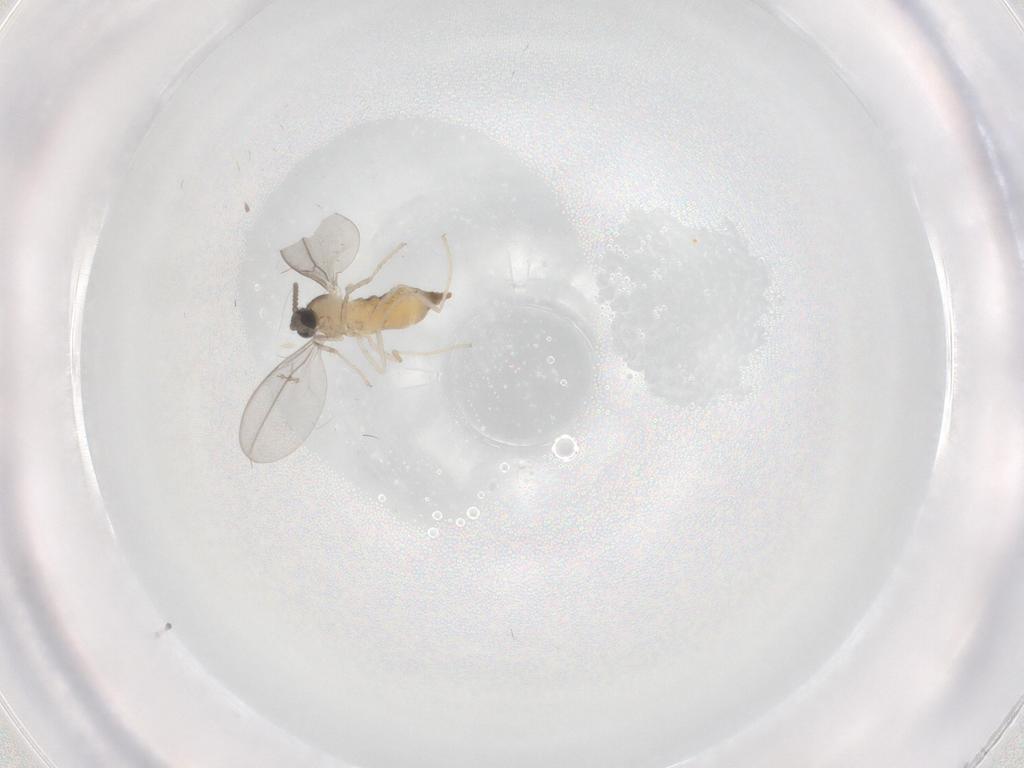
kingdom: Animalia
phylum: Arthropoda
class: Insecta
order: Diptera
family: Cecidomyiidae
